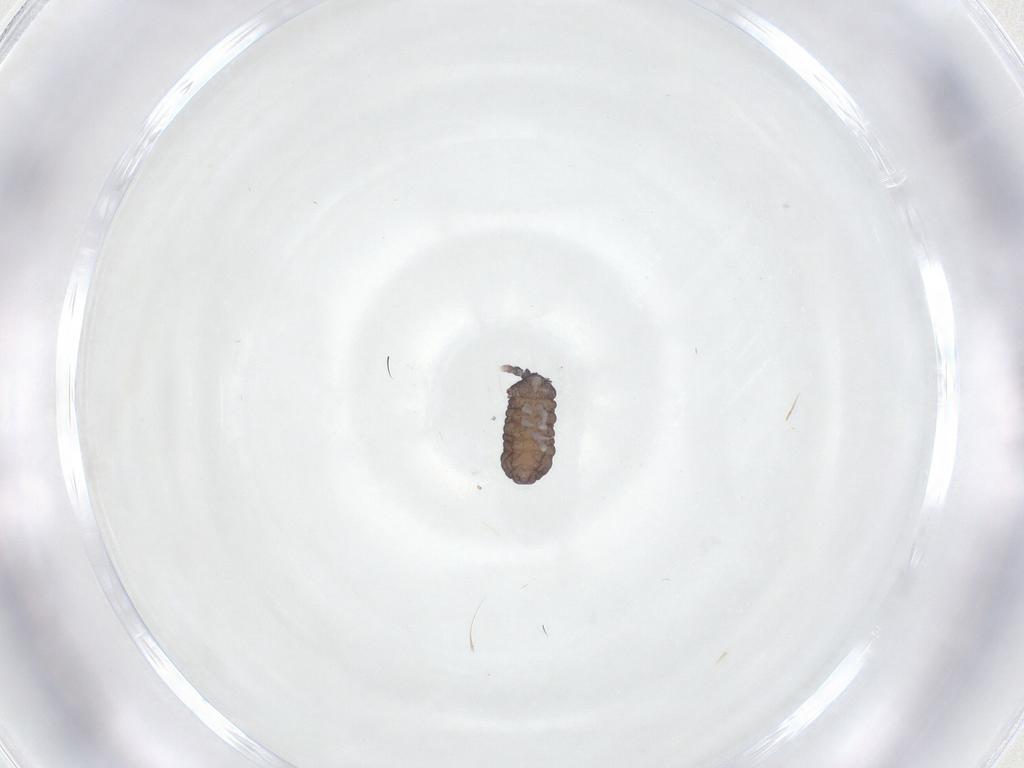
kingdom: Animalia
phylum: Arthropoda
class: Collembola
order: Poduromorpha
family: Neanuridae
